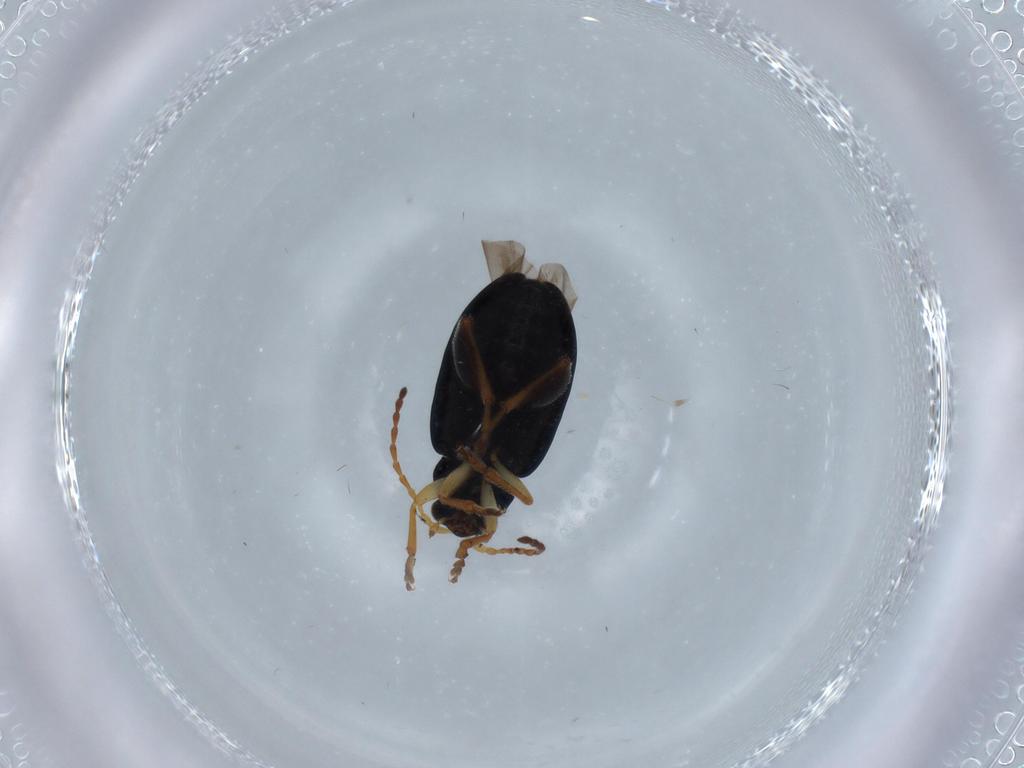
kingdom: Animalia
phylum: Arthropoda
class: Insecta
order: Coleoptera
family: Chrysomelidae
